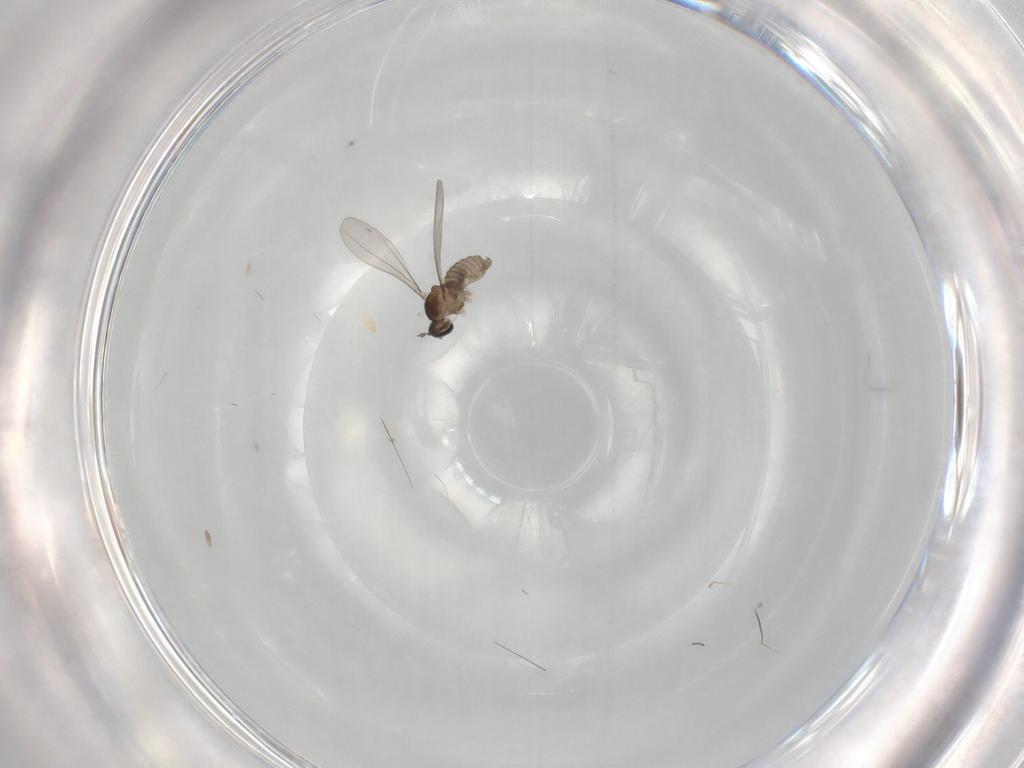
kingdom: Animalia
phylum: Arthropoda
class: Insecta
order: Diptera
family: Cecidomyiidae
